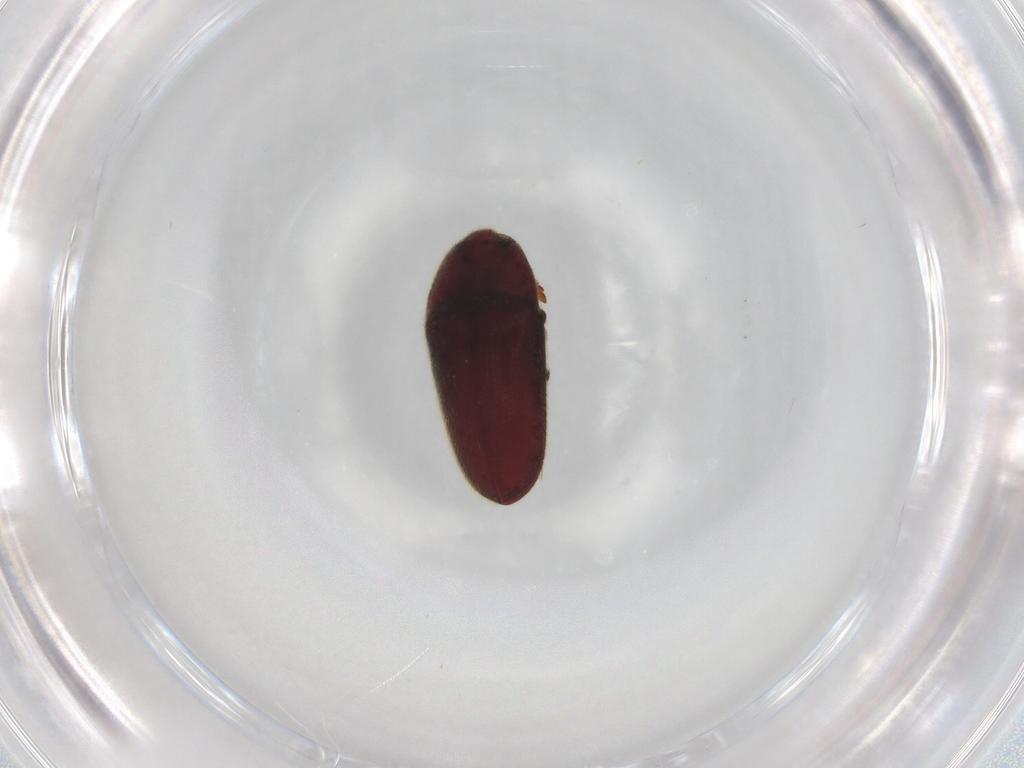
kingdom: Animalia
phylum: Arthropoda
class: Insecta
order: Coleoptera
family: Throscidae
